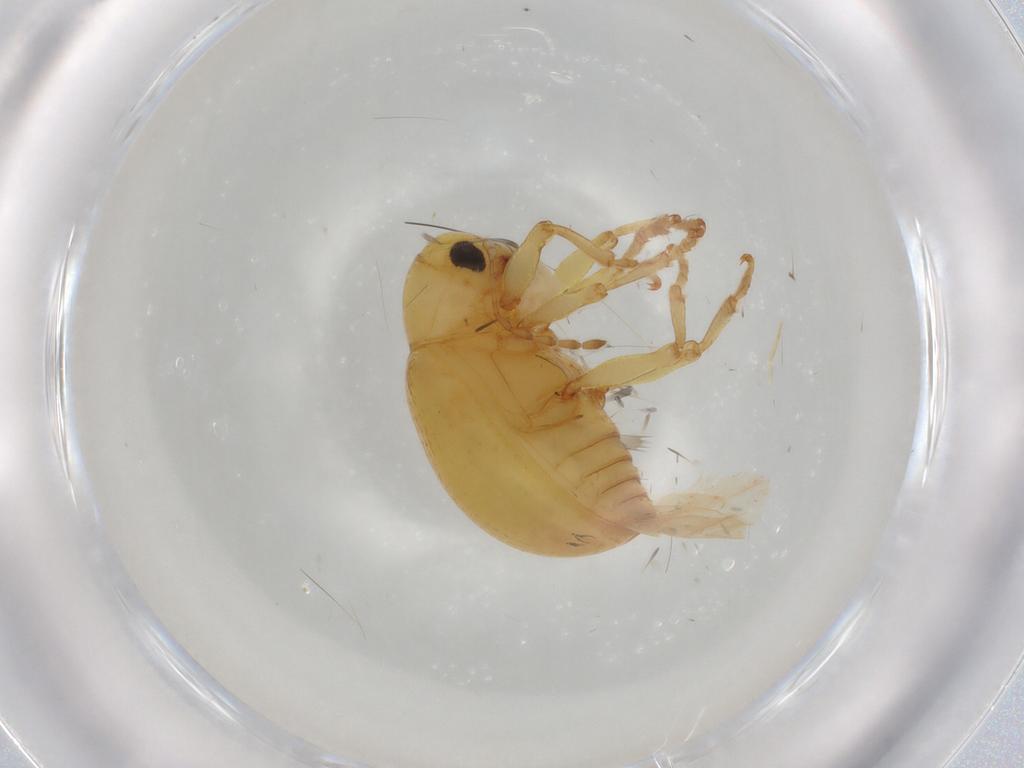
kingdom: Animalia
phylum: Arthropoda
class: Insecta
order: Coleoptera
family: Chrysomelidae
